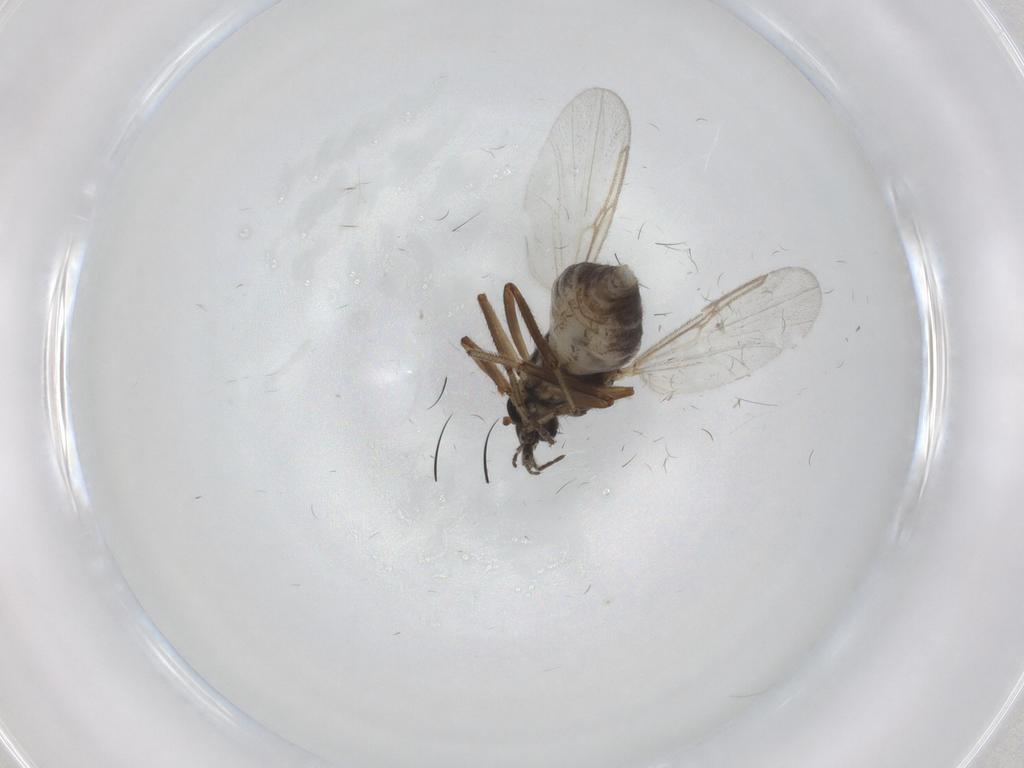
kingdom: Animalia
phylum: Arthropoda
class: Insecta
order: Diptera
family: Ceratopogonidae
